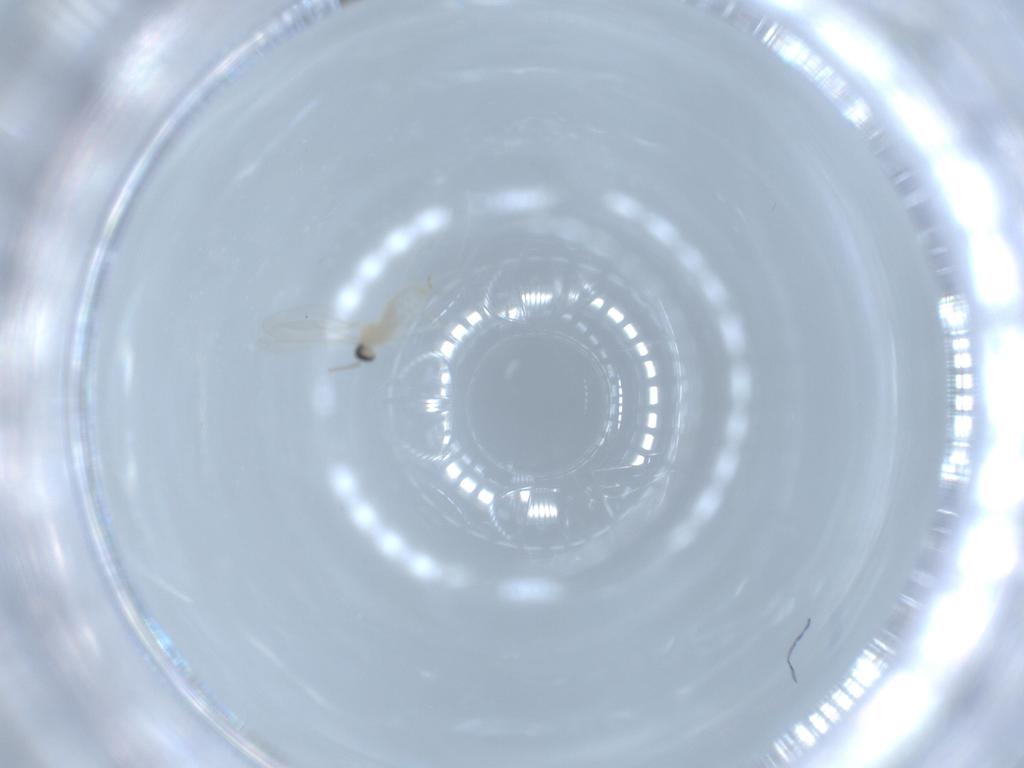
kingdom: Animalia
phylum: Arthropoda
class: Insecta
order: Diptera
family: Cecidomyiidae
